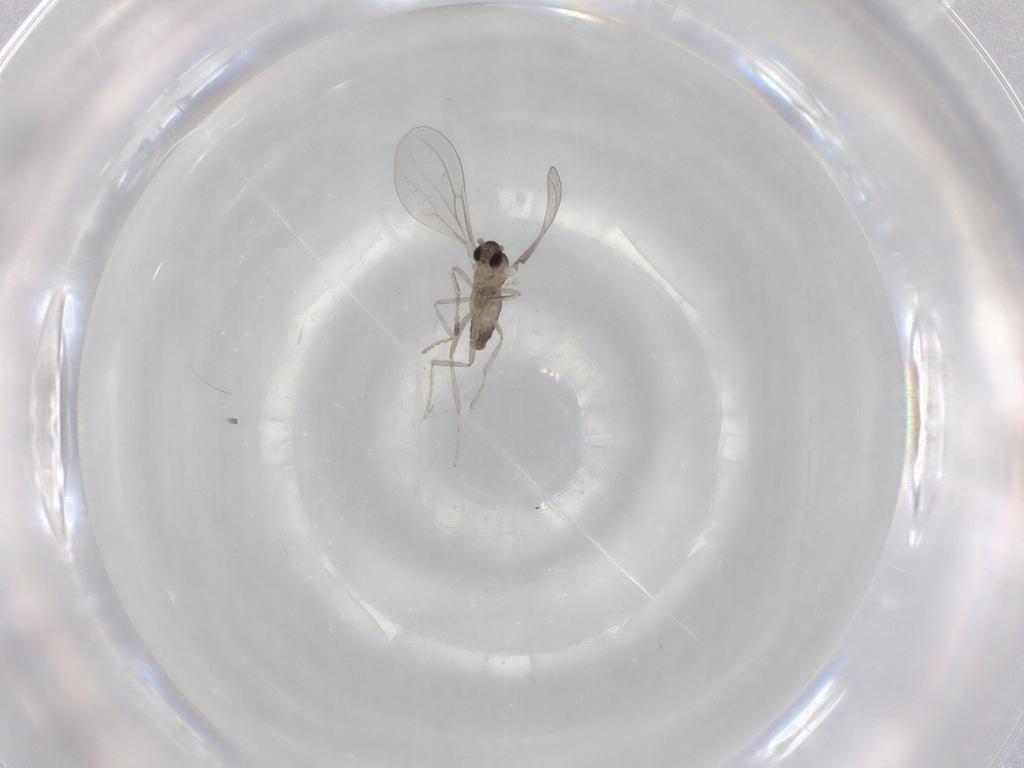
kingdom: Animalia
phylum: Arthropoda
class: Insecta
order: Diptera
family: Cecidomyiidae
